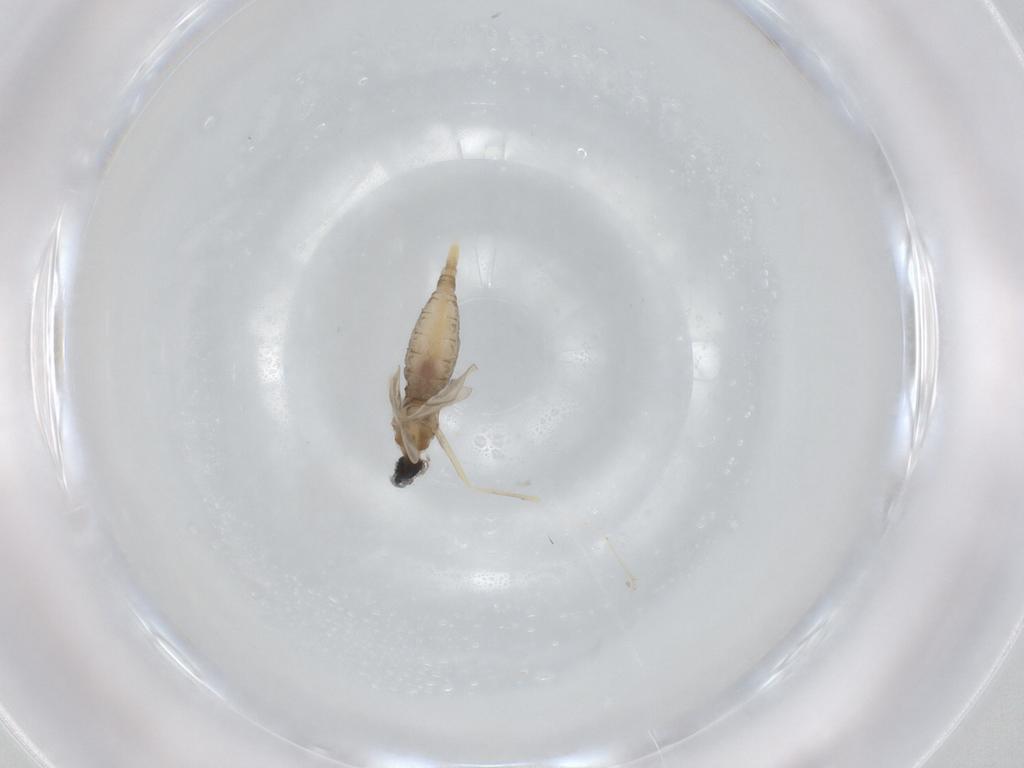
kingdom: Animalia
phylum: Arthropoda
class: Insecta
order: Diptera
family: Cecidomyiidae
